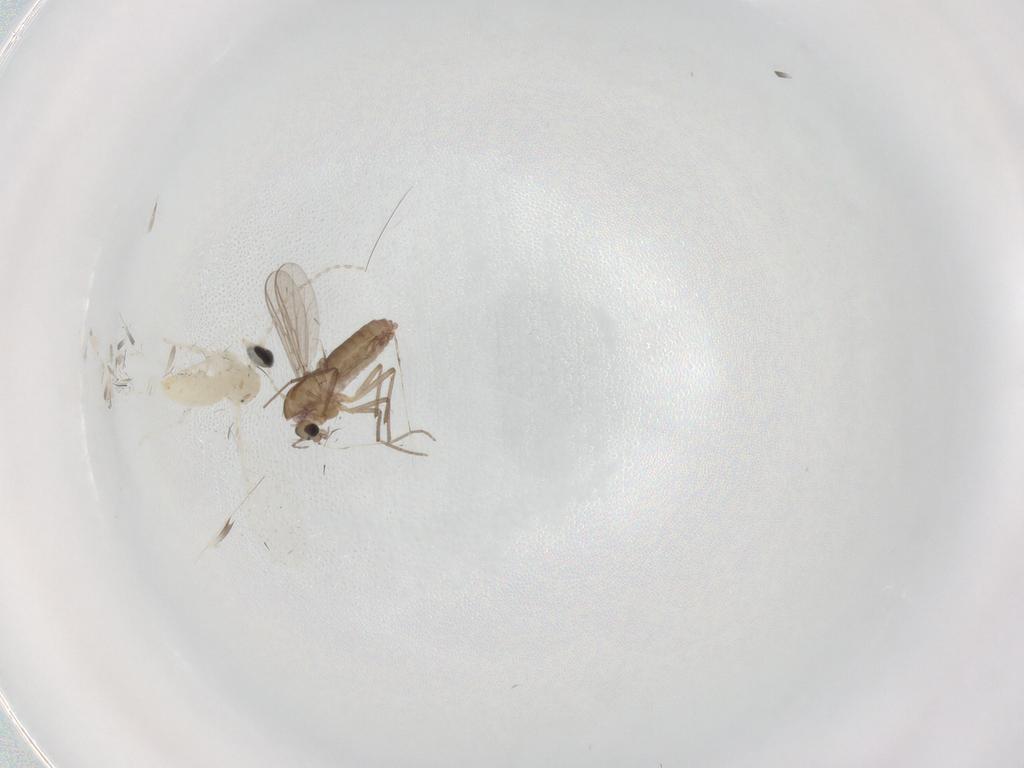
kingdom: Animalia
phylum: Arthropoda
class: Insecta
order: Diptera
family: Cecidomyiidae
